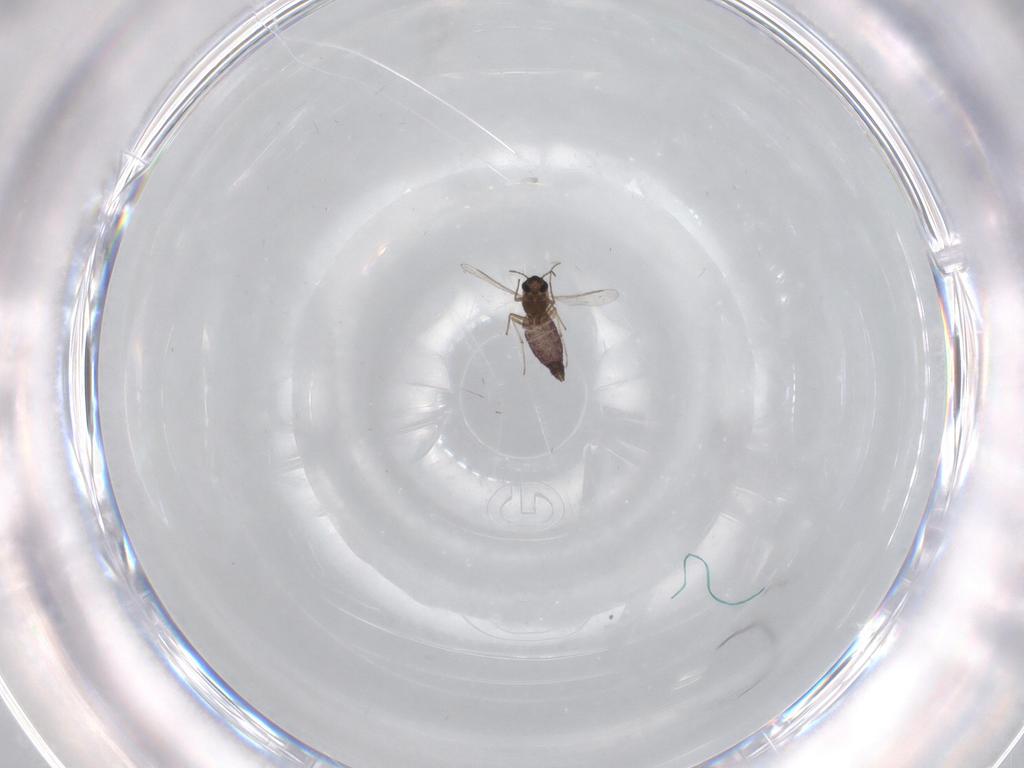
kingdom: Animalia
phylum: Arthropoda
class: Insecta
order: Diptera
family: Chironomidae
